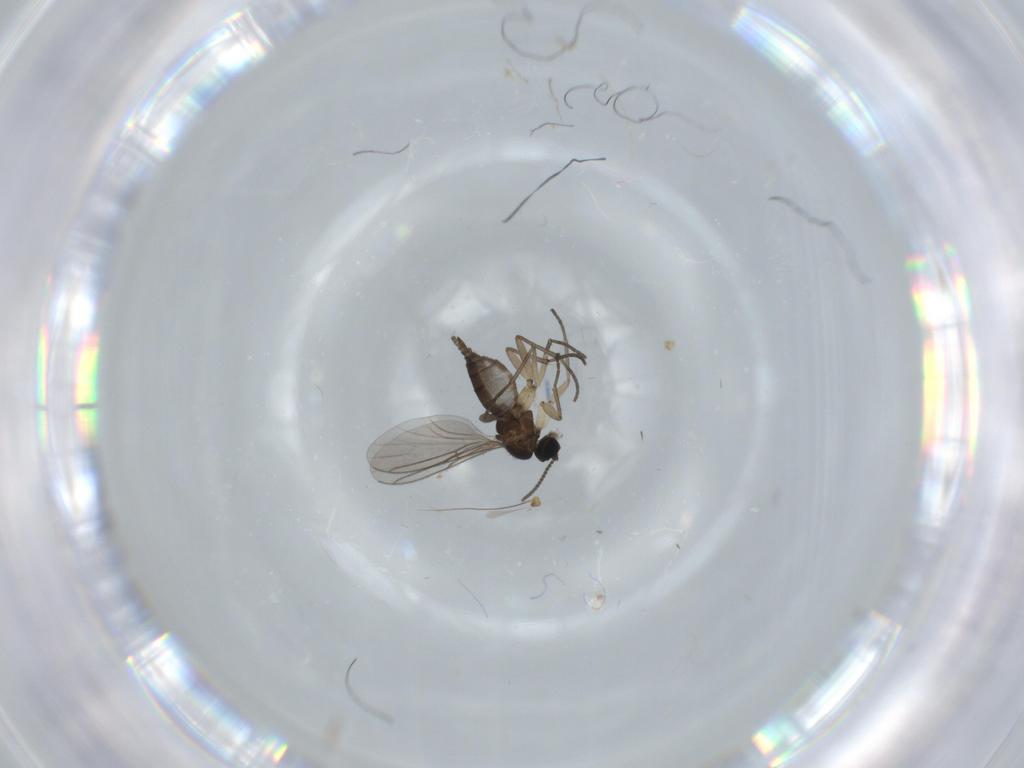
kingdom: Animalia
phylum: Arthropoda
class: Insecta
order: Diptera
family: Sciaridae
